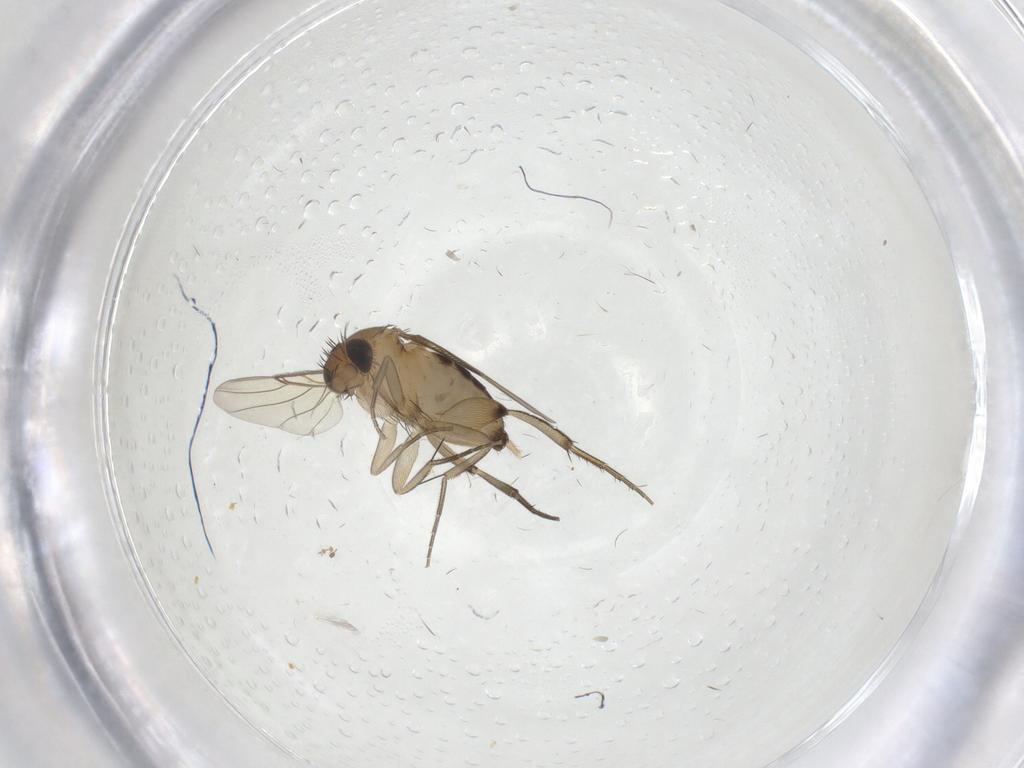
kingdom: Animalia
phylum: Arthropoda
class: Insecta
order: Diptera
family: Phoridae
